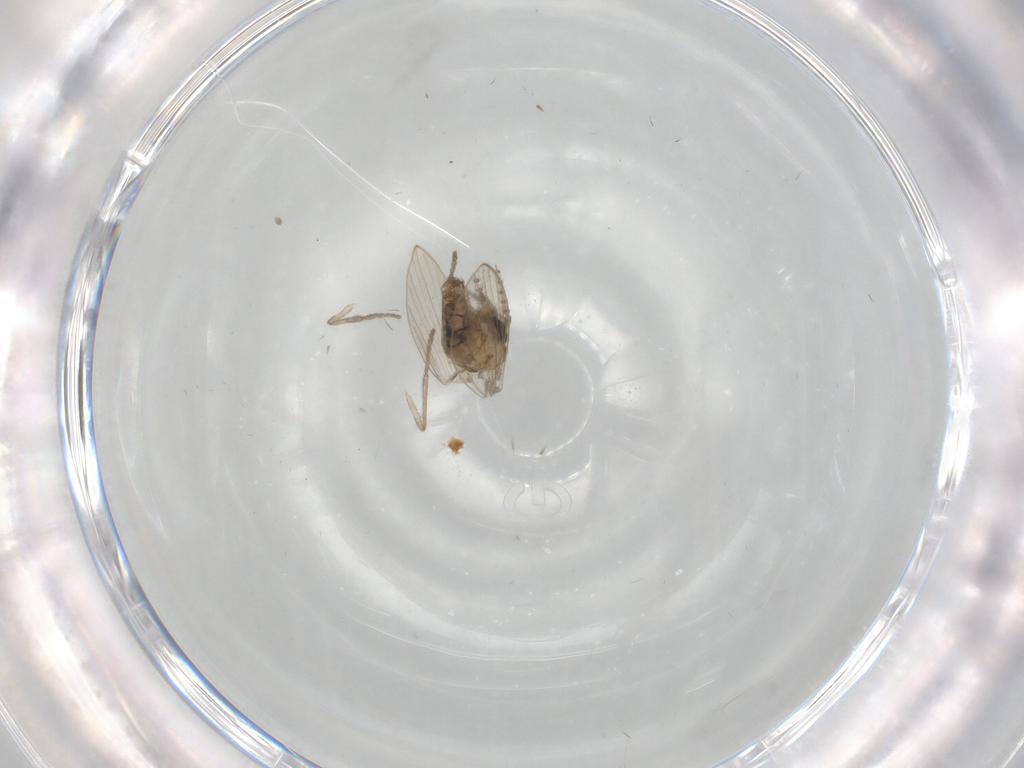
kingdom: Animalia
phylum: Arthropoda
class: Insecta
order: Diptera
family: Psychodidae
